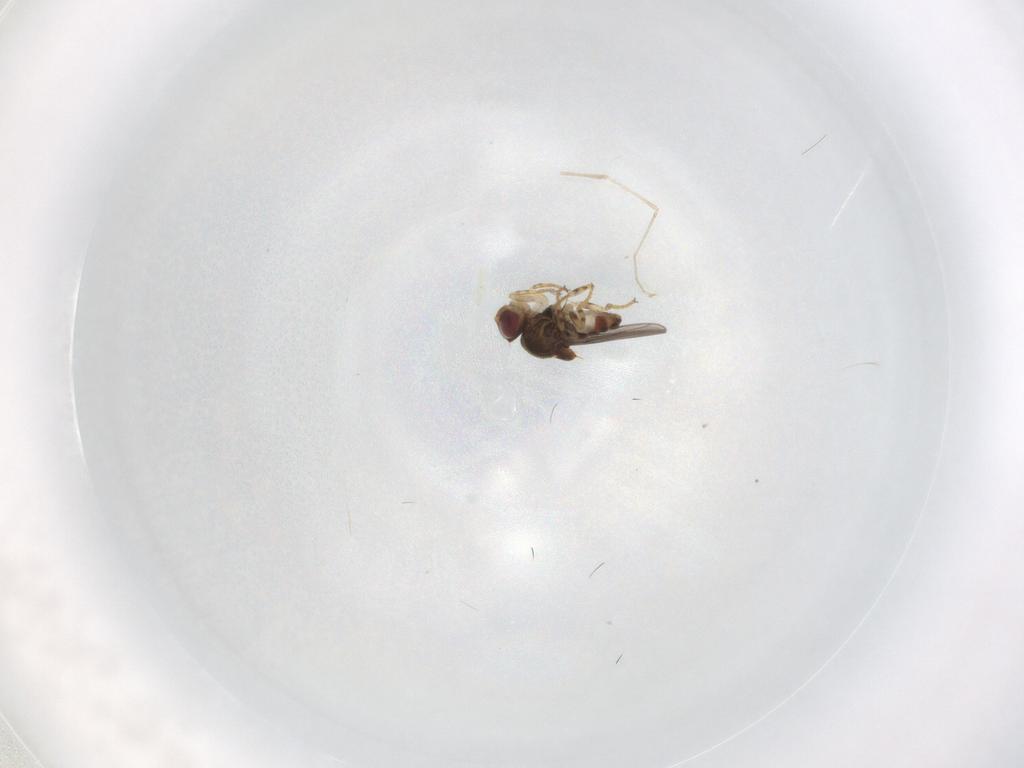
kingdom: Animalia
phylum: Arthropoda
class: Insecta
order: Diptera
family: Cecidomyiidae
